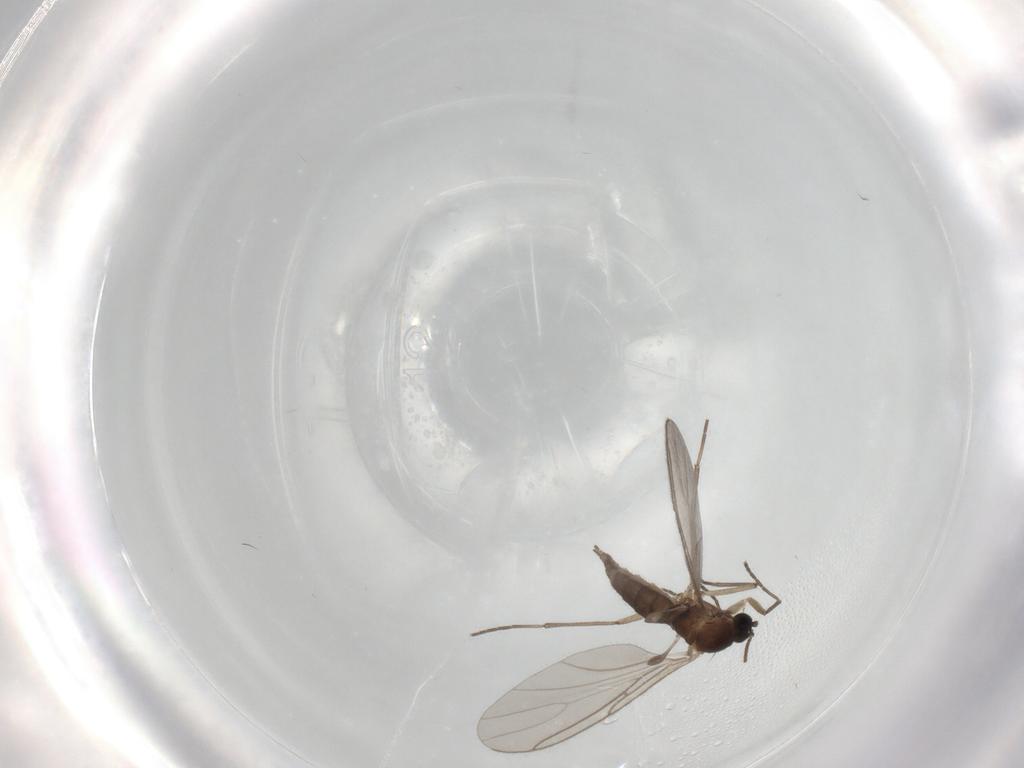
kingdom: Animalia
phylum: Arthropoda
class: Insecta
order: Diptera
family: Sciaridae
